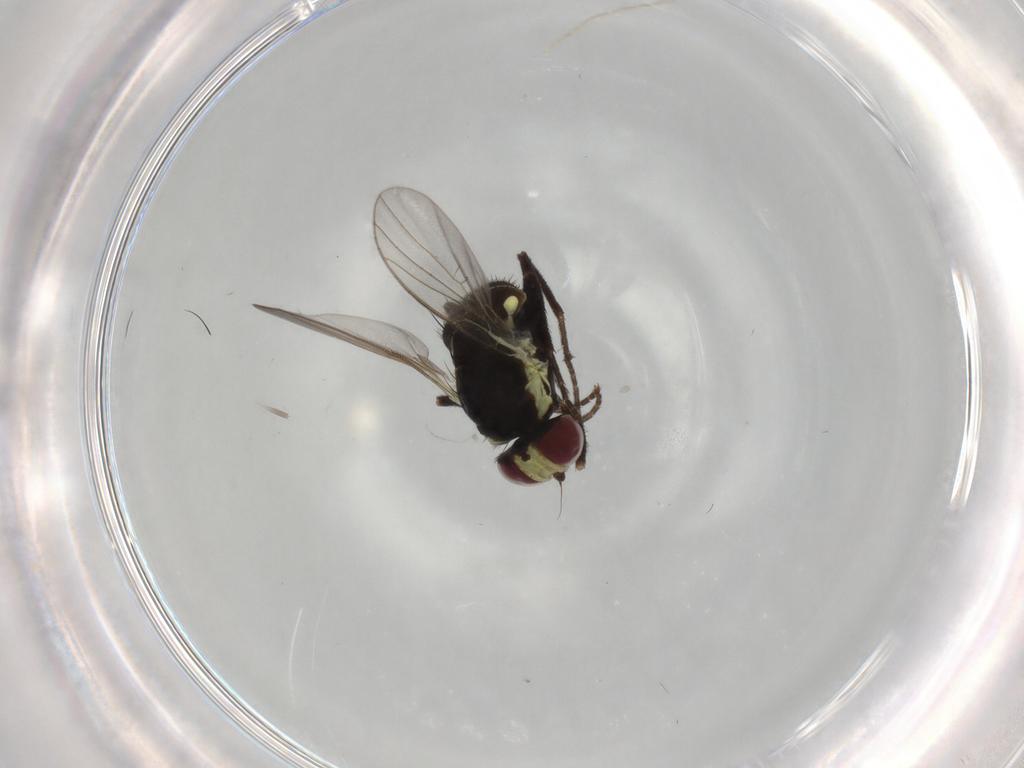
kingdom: Animalia
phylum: Arthropoda
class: Insecta
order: Diptera
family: Agromyzidae
